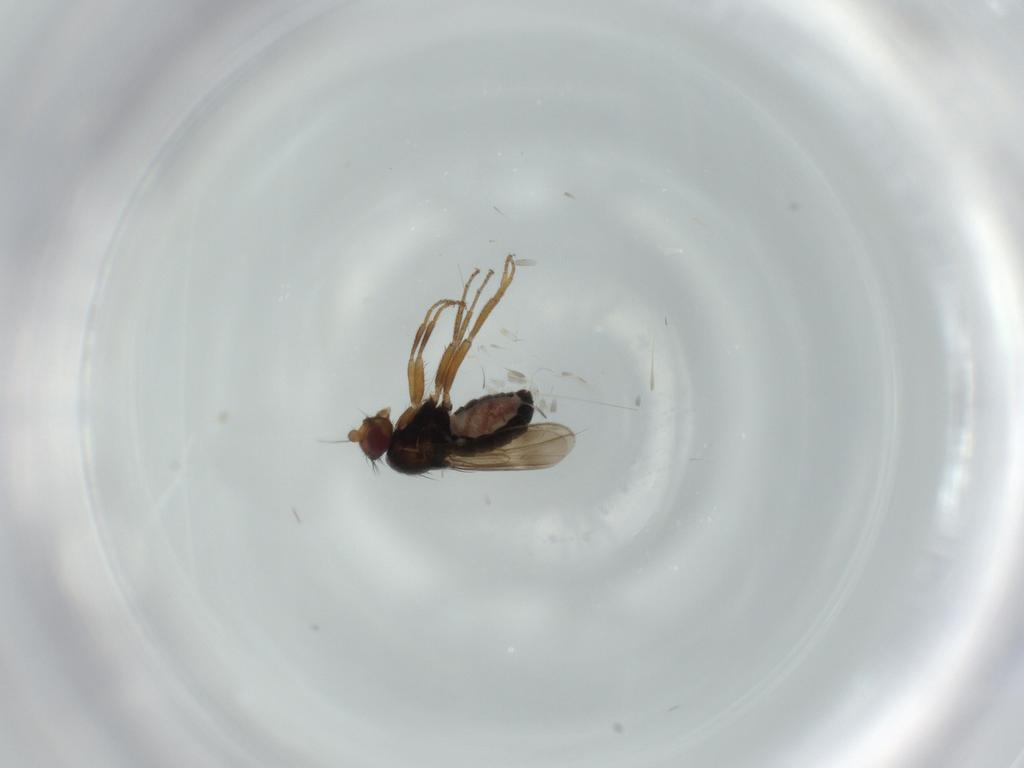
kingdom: Animalia
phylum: Arthropoda
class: Insecta
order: Diptera
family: Sphaeroceridae
